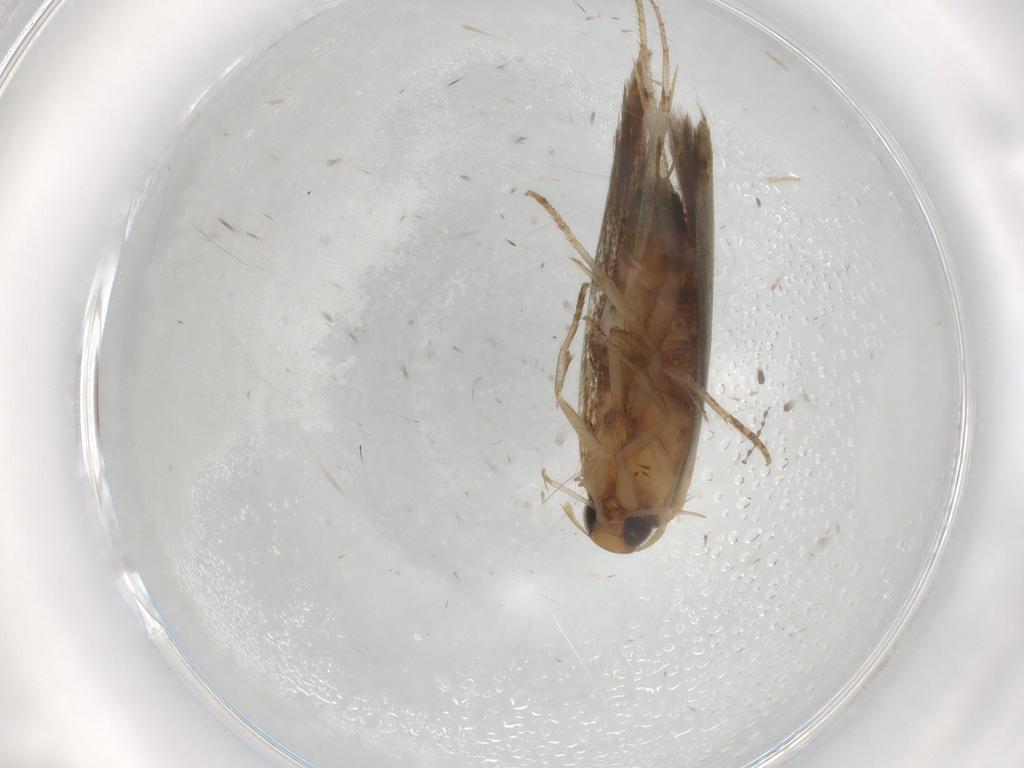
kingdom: Animalia
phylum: Arthropoda
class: Insecta
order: Lepidoptera
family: Cosmopterigidae
